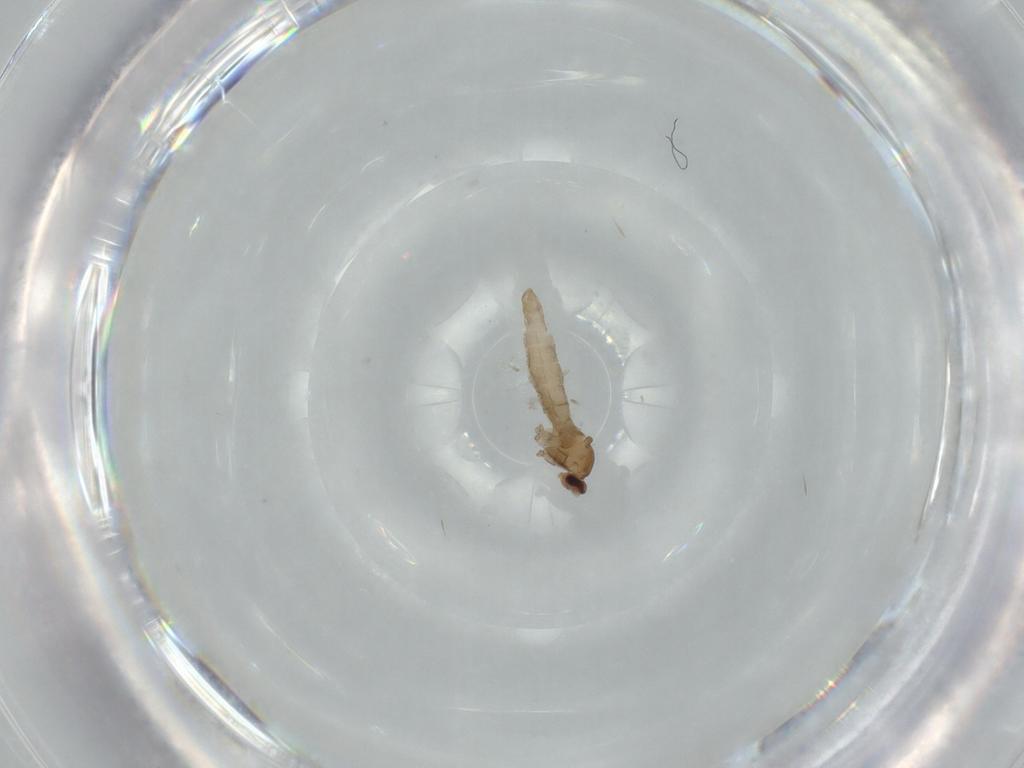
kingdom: Animalia
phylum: Arthropoda
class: Insecta
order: Diptera
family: Cecidomyiidae
